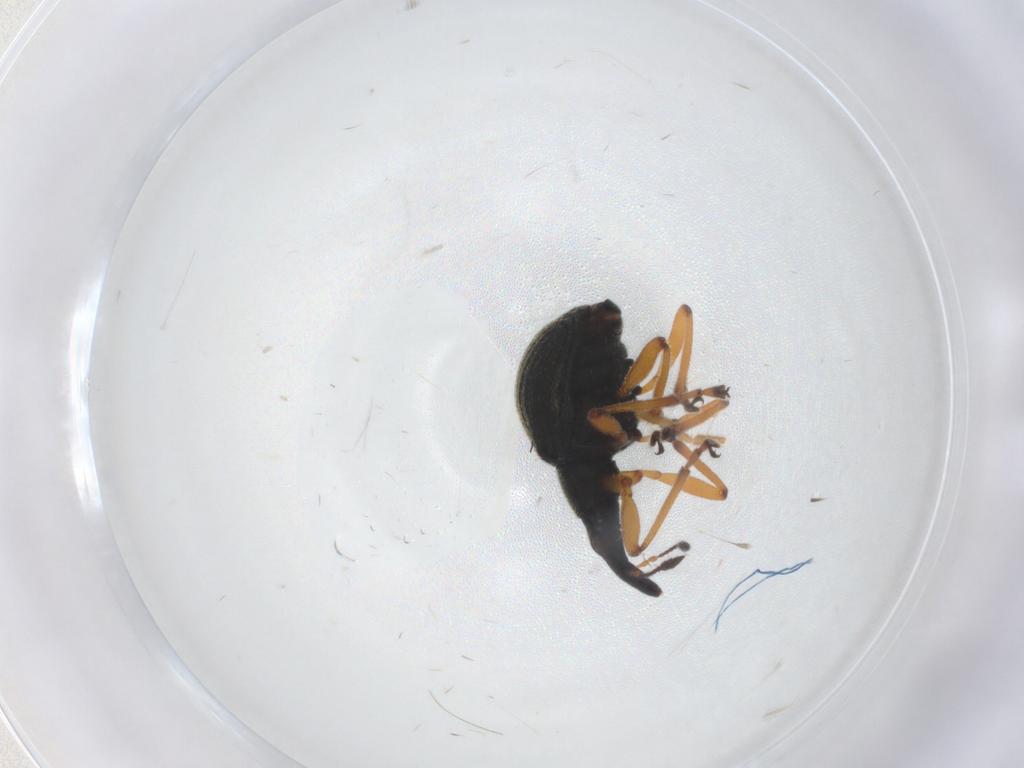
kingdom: Animalia
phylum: Arthropoda
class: Insecta
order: Coleoptera
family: Brentidae
